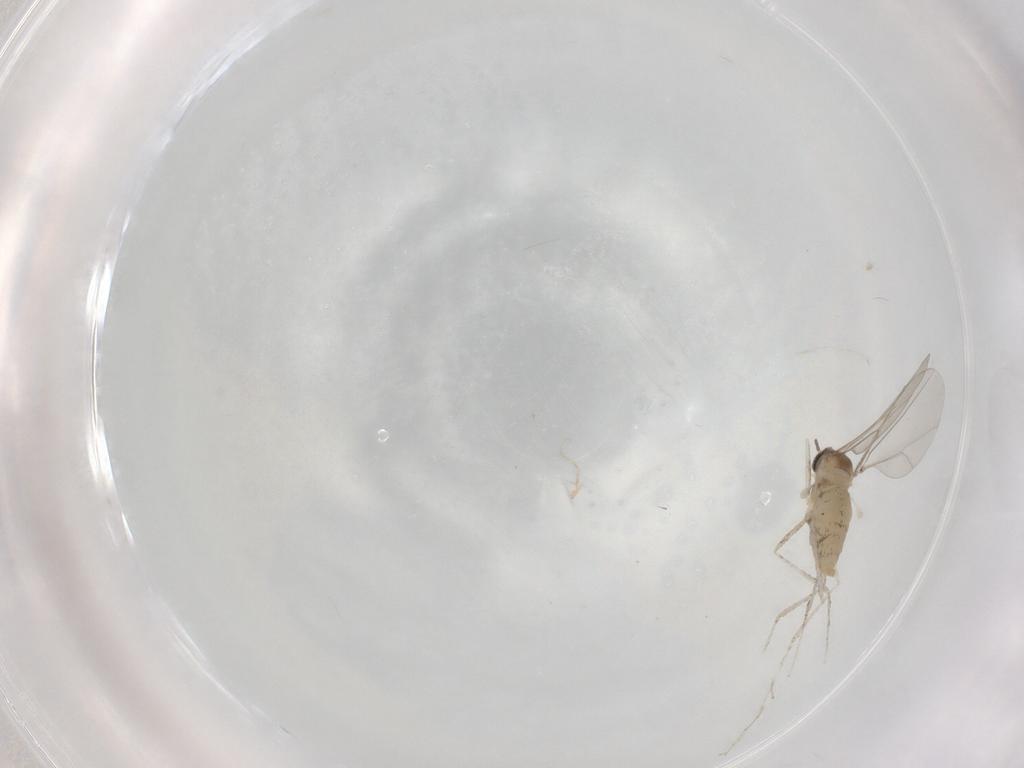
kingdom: Animalia
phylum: Arthropoda
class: Insecta
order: Diptera
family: Cecidomyiidae
